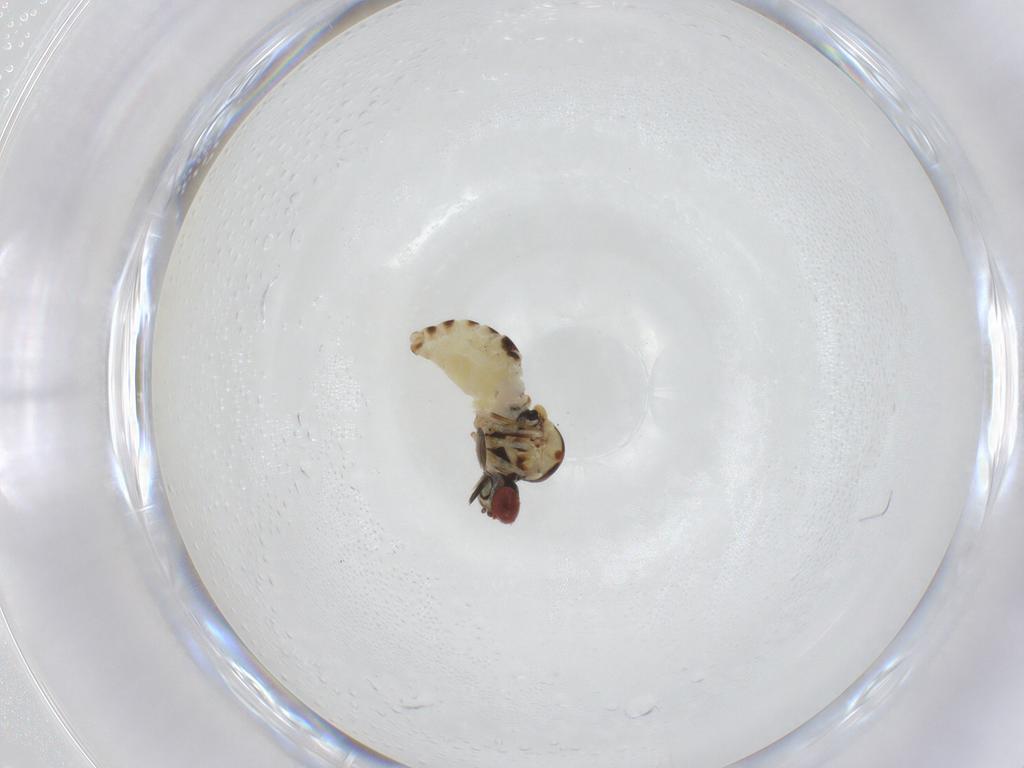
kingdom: Animalia
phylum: Arthropoda
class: Insecta
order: Diptera
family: Bombyliidae
